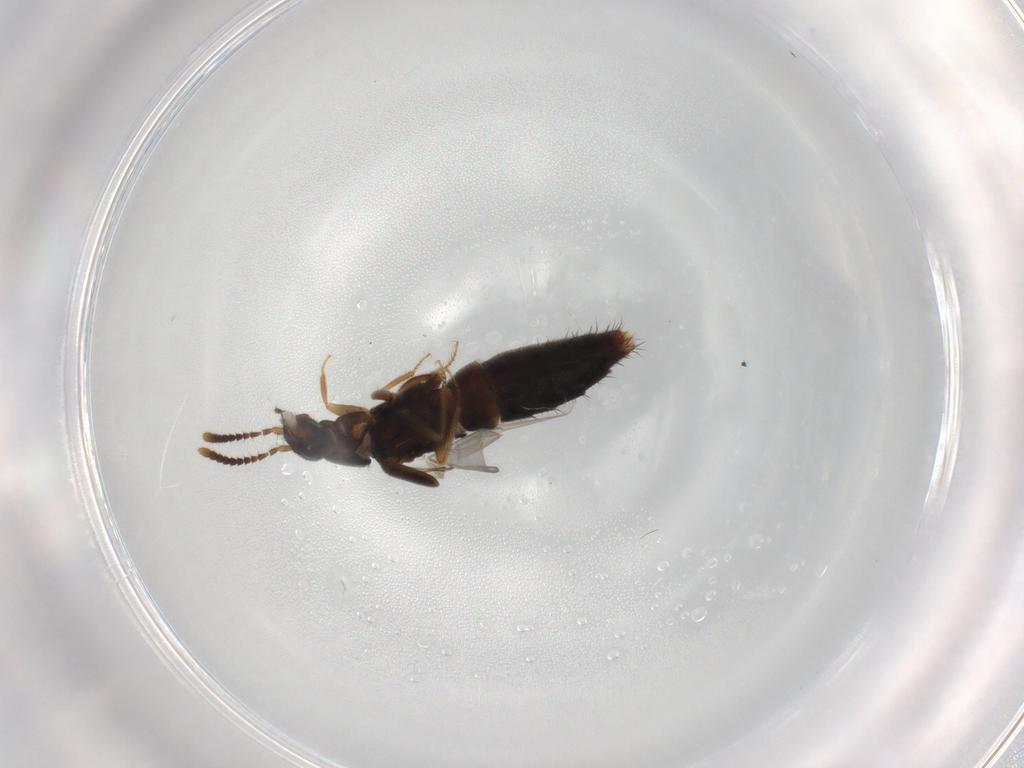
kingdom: Animalia
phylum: Arthropoda
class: Insecta
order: Coleoptera
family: Staphylinidae
